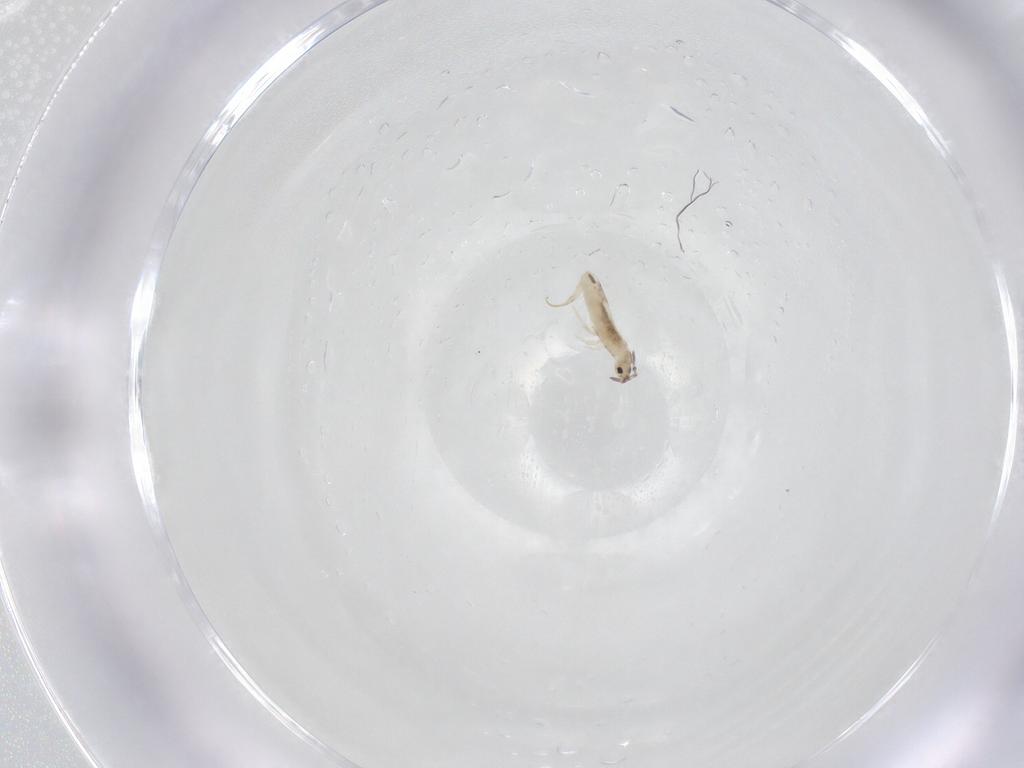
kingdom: Animalia
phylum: Arthropoda
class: Collembola
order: Entomobryomorpha
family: Entomobryidae
